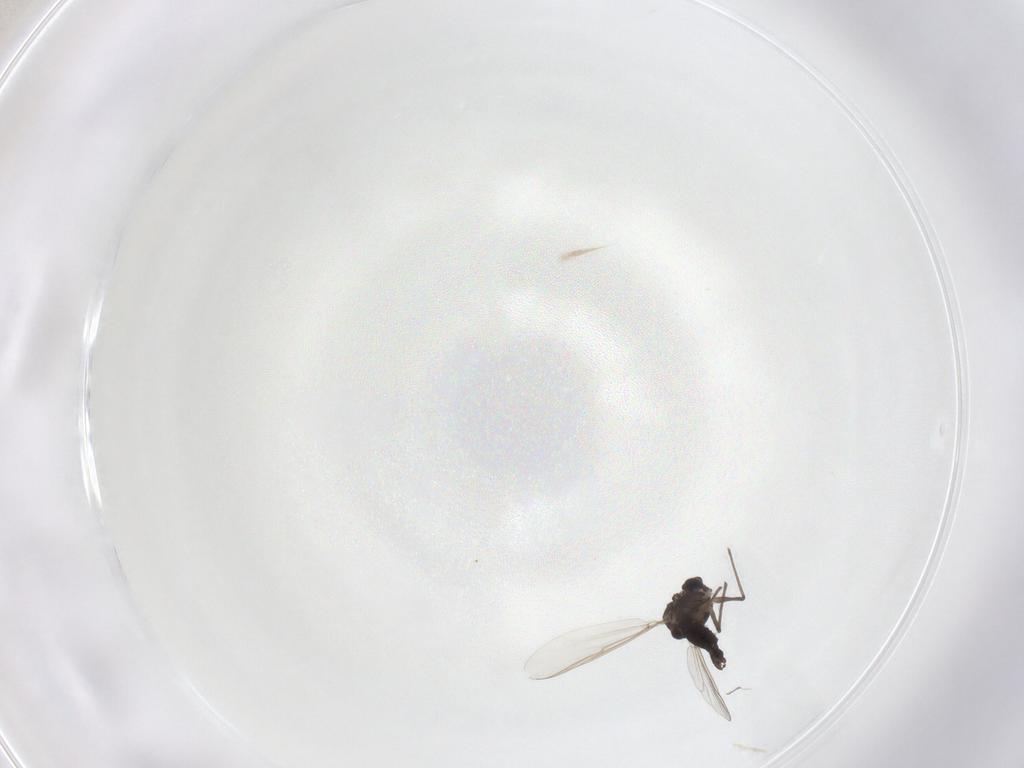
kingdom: Animalia
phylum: Arthropoda
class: Insecta
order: Diptera
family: Chironomidae
